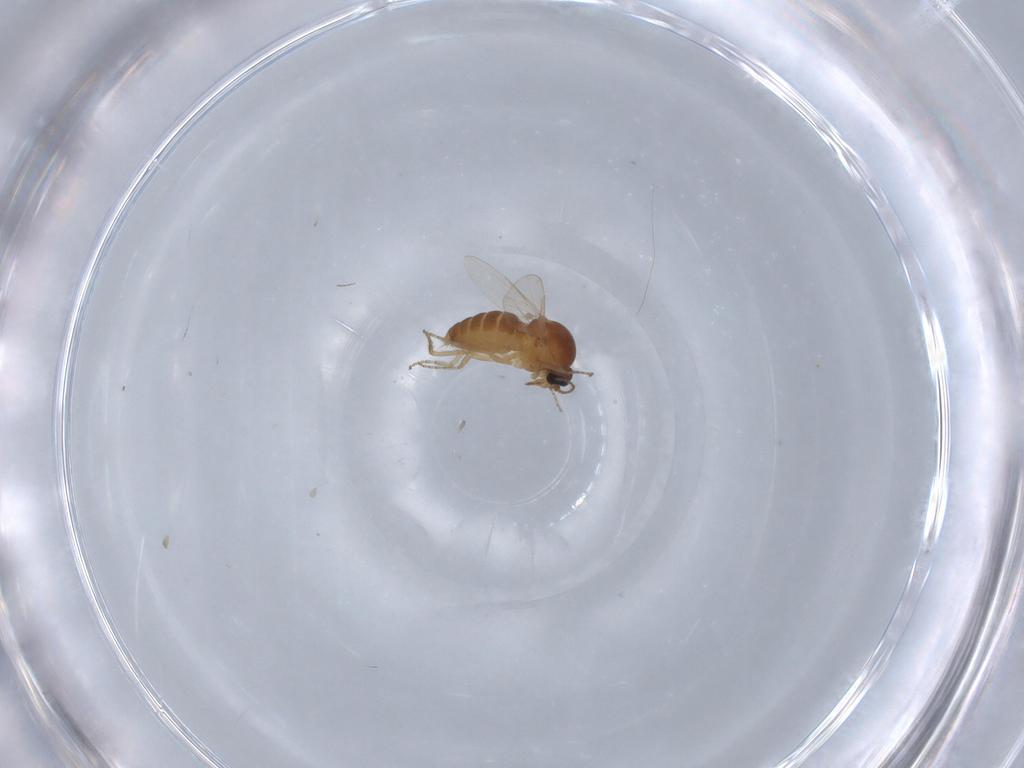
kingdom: Animalia
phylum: Arthropoda
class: Insecta
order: Diptera
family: Ceratopogonidae
